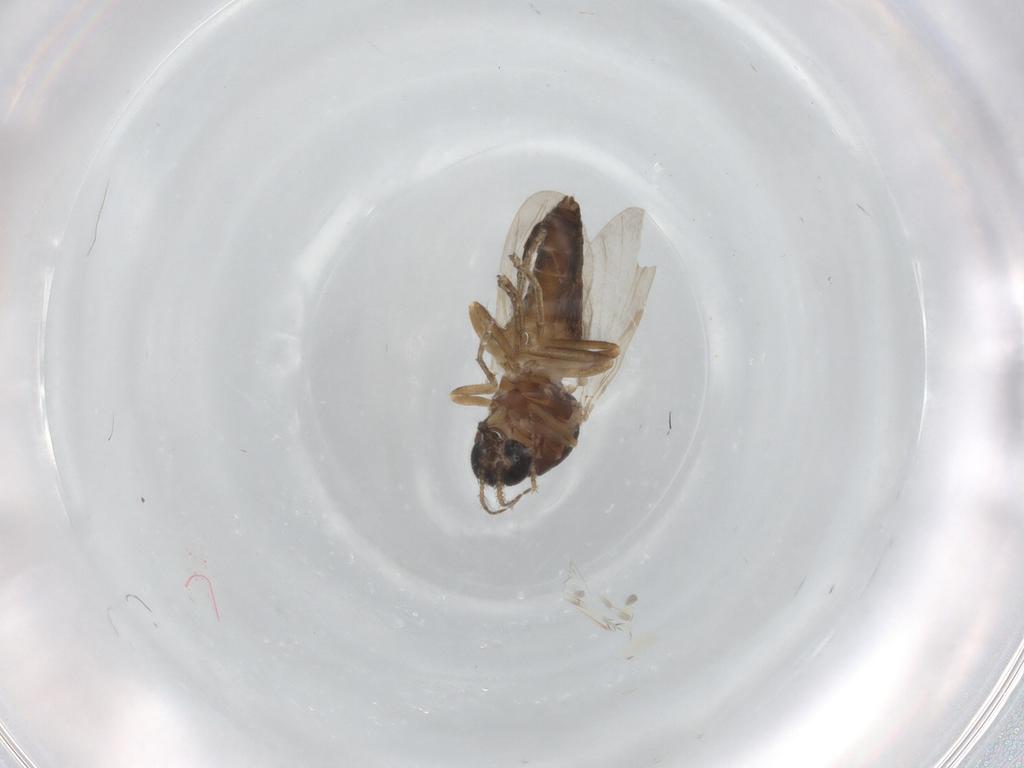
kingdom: Animalia
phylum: Arthropoda
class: Insecta
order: Diptera
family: Ceratopogonidae
